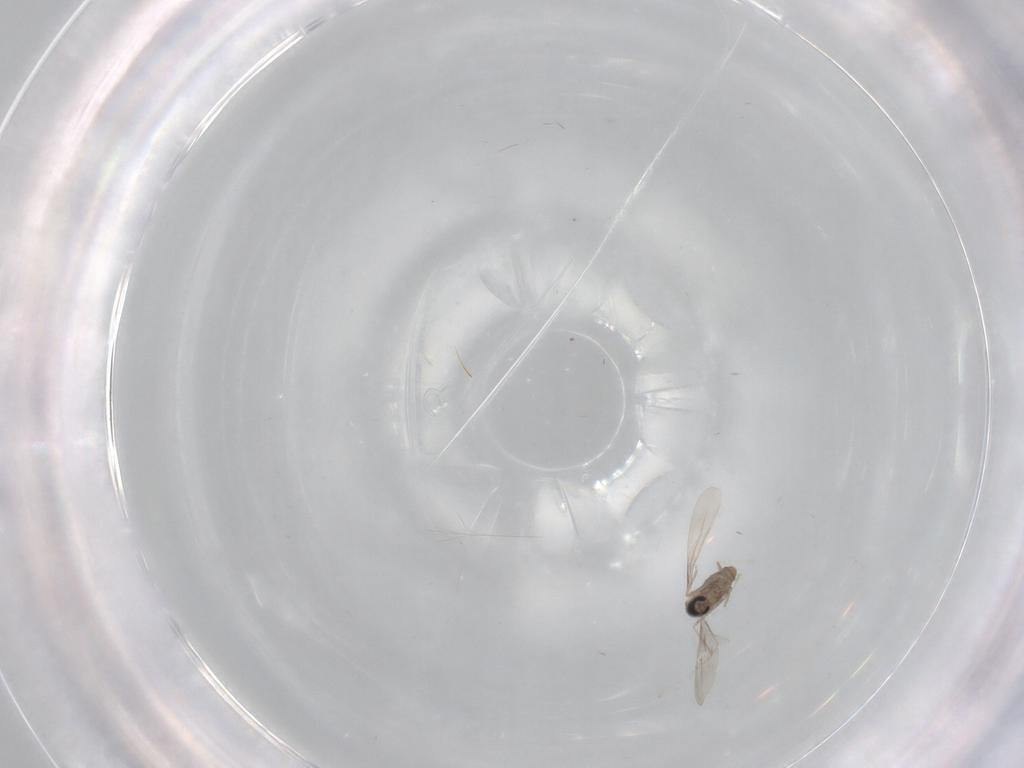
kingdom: Animalia
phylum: Arthropoda
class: Insecta
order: Diptera
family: Cecidomyiidae
